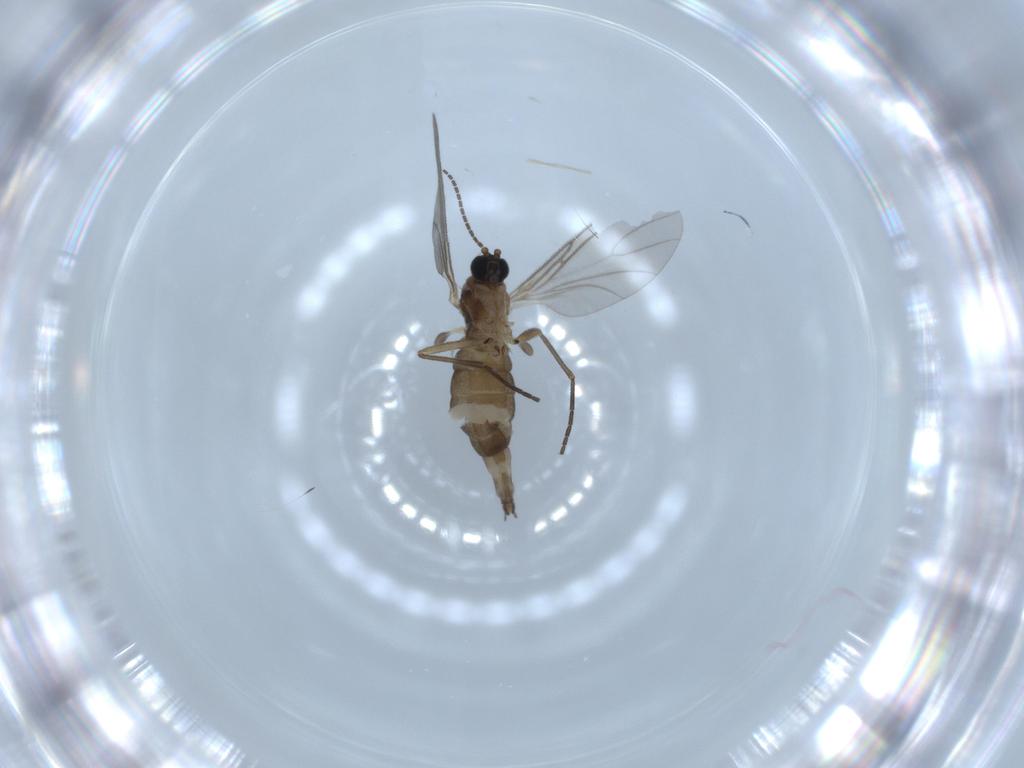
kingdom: Animalia
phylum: Arthropoda
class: Insecta
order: Diptera
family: Sciaridae
